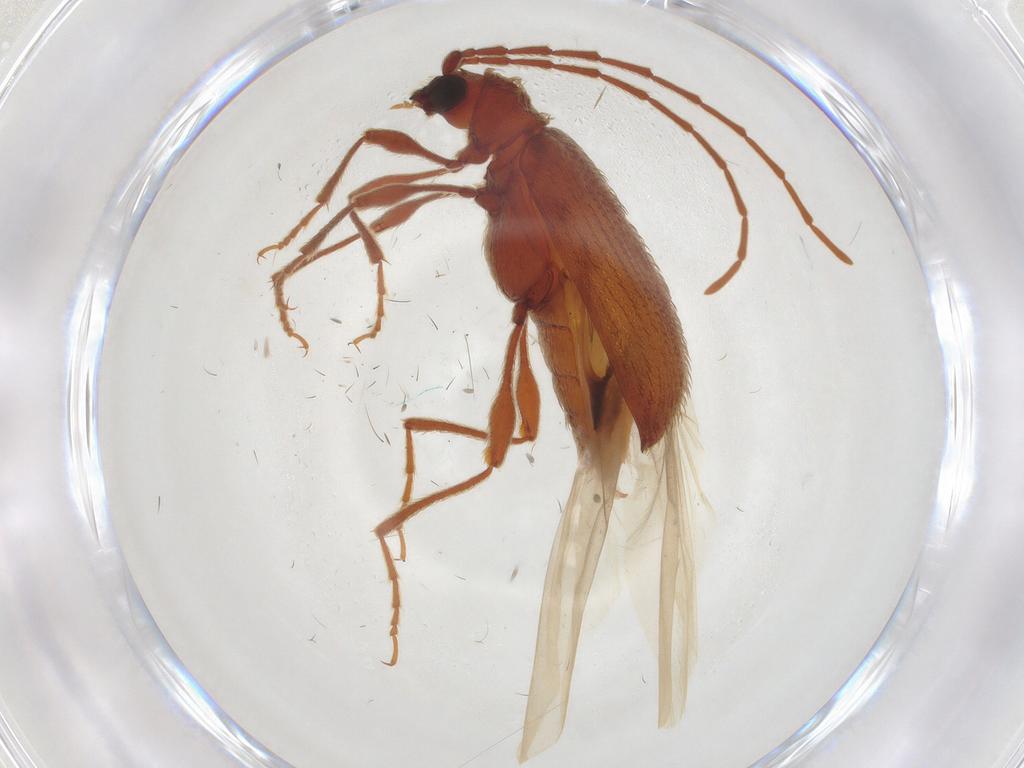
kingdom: Animalia
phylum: Arthropoda
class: Insecta
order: Coleoptera
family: Ptinidae
